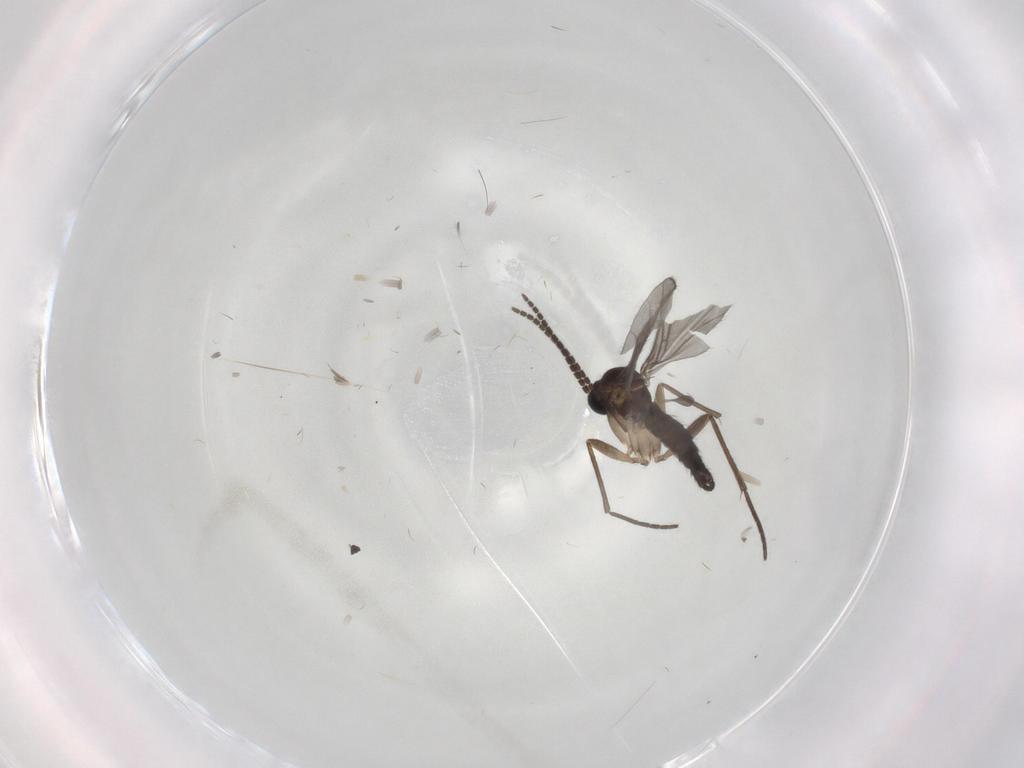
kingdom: Animalia
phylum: Arthropoda
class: Insecta
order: Diptera
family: Sciaridae
